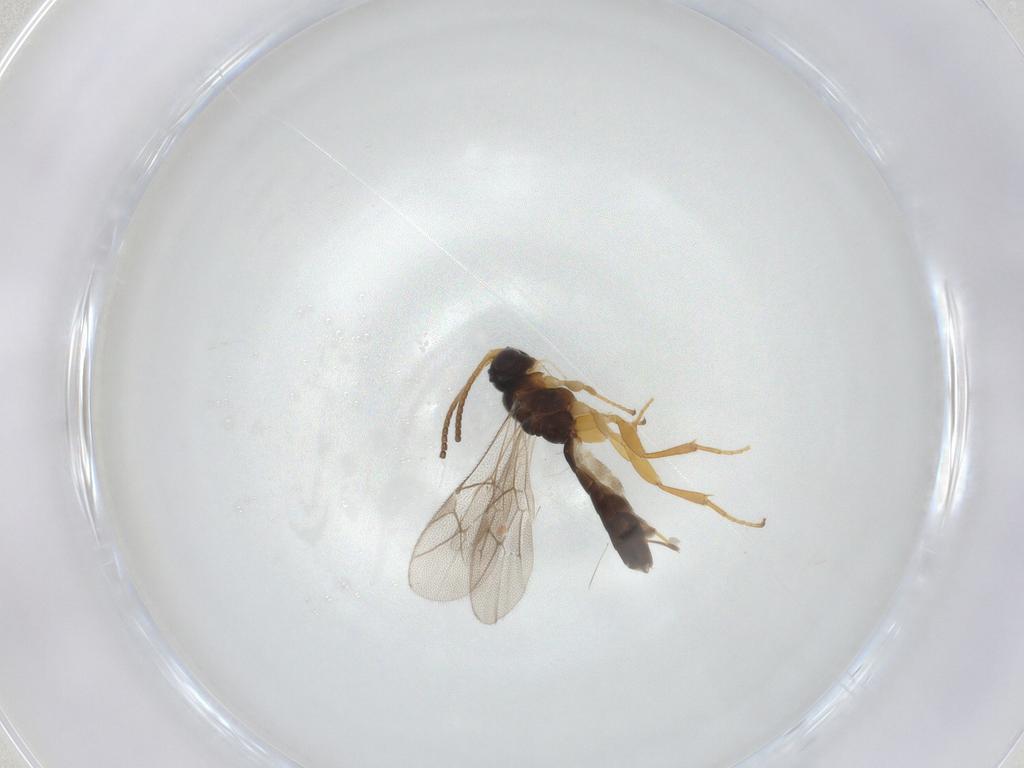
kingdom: Animalia
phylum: Arthropoda
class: Insecta
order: Hymenoptera
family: Ichneumonidae
